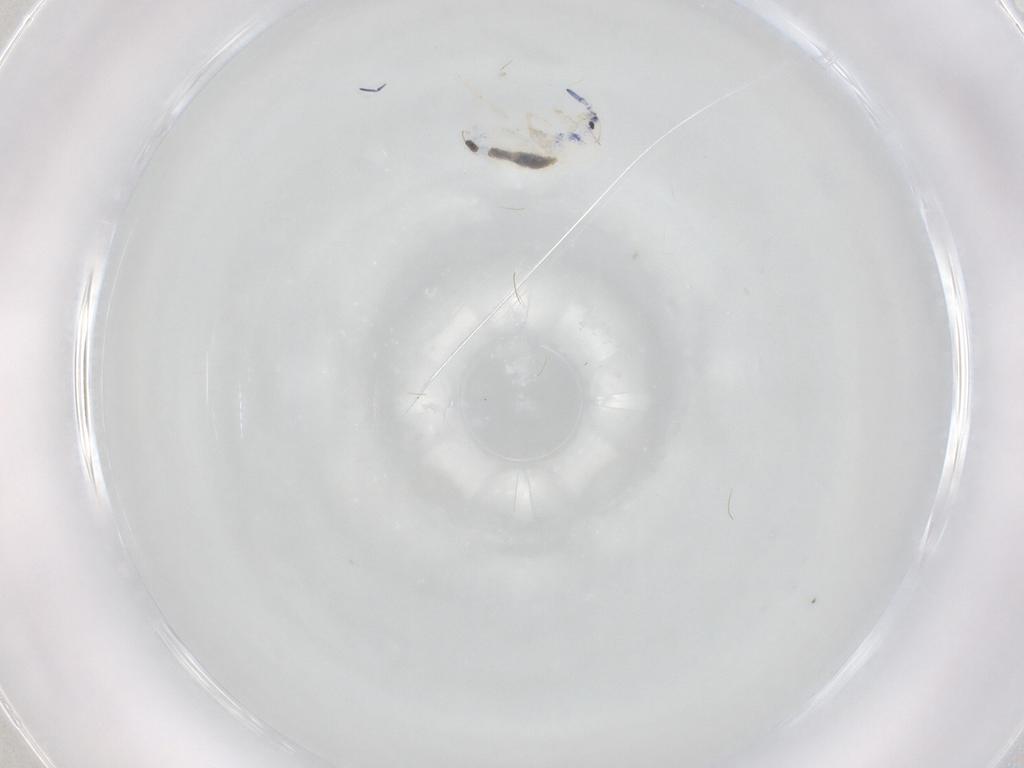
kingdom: Animalia
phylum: Arthropoda
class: Collembola
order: Entomobryomorpha
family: Entomobryidae
